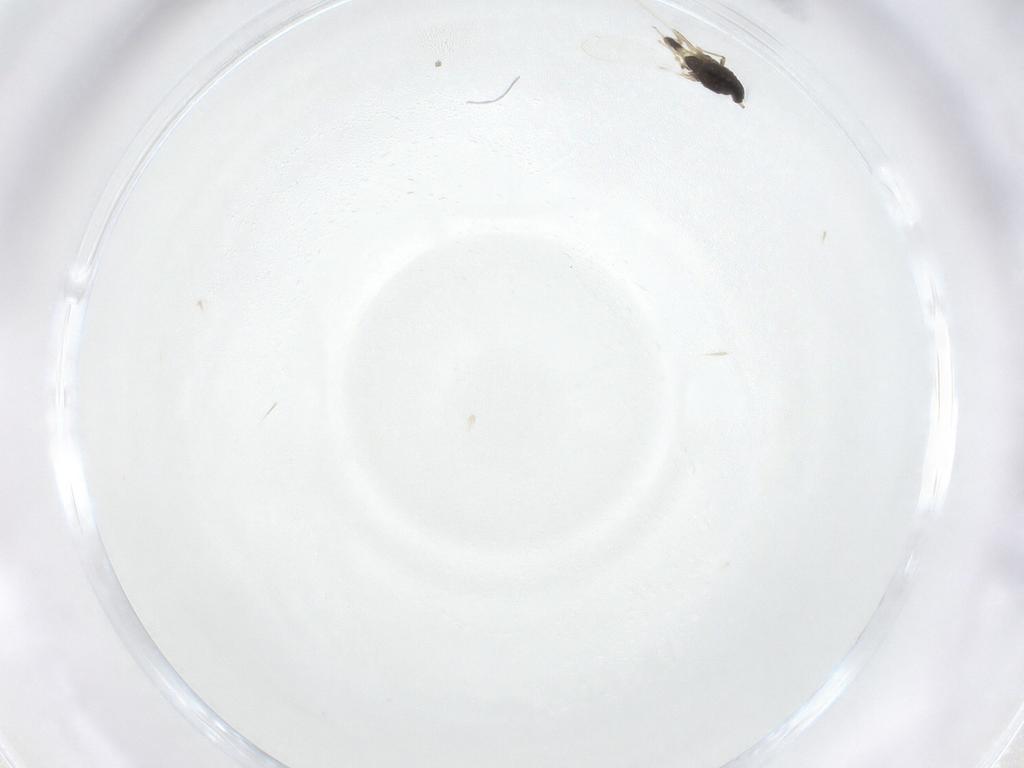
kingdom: Animalia
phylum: Arthropoda
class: Insecta
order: Diptera
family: Chironomidae
